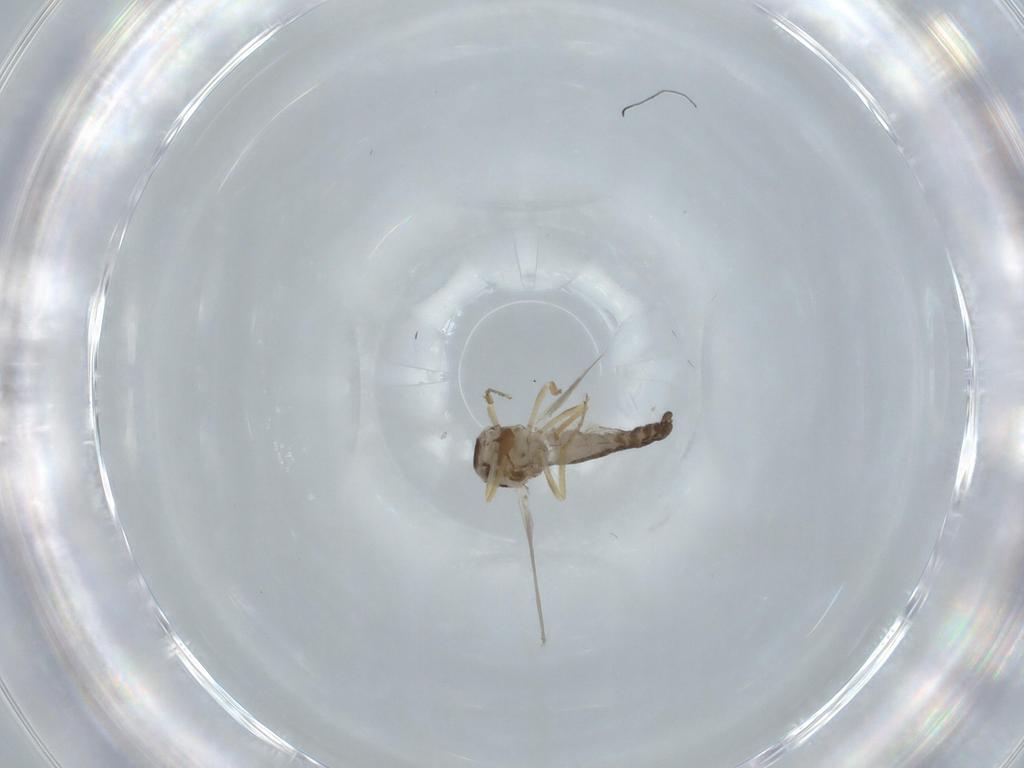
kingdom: Animalia
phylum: Arthropoda
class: Insecta
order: Diptera
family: Ceratopogonidae
